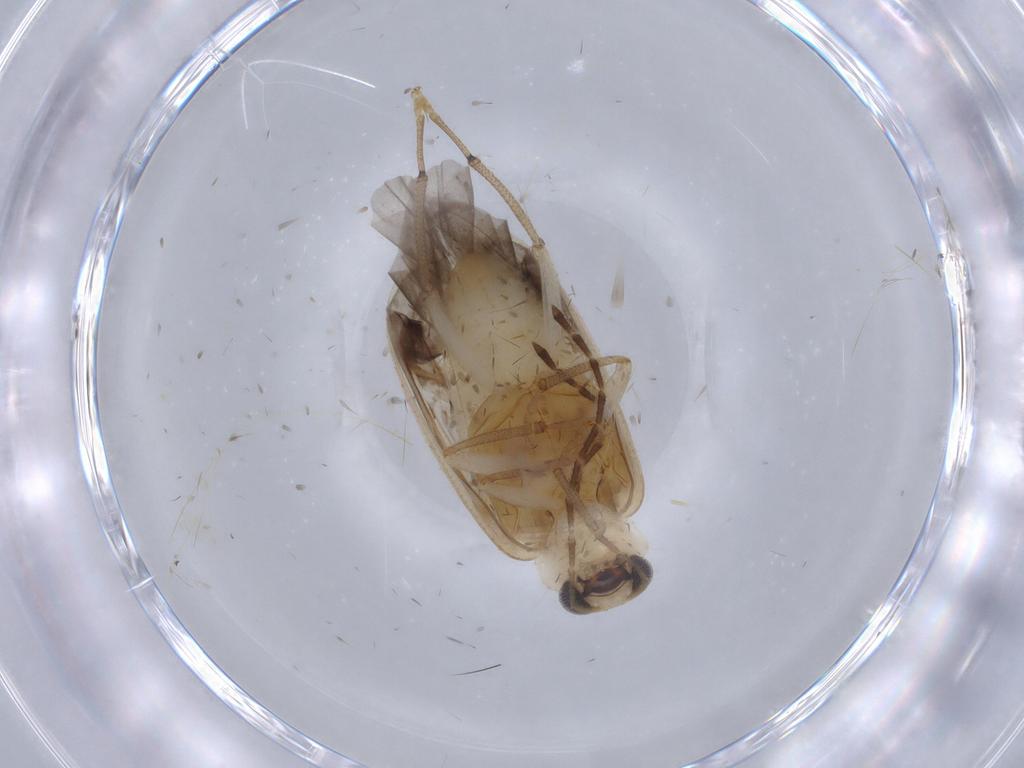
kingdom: Animalia
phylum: Arthropoda
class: Insecta
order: Coleoptera
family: Chrysomelidae
